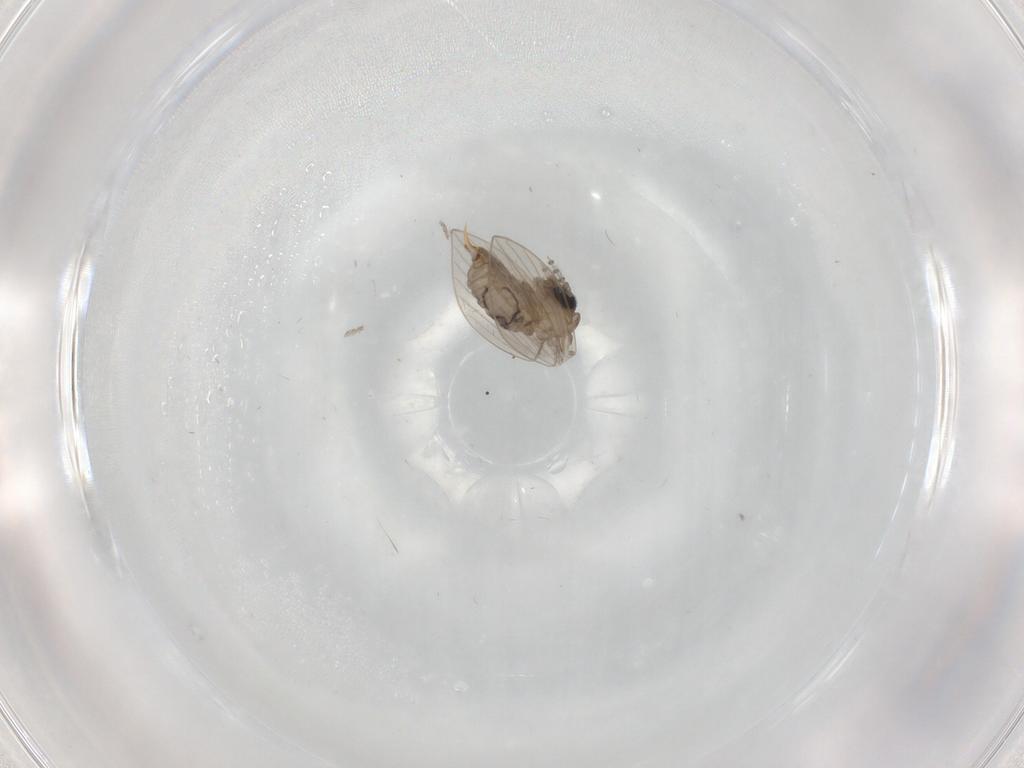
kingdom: Animalia
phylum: Arthropoda
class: Insecta
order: Diptera
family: Psychodidae
